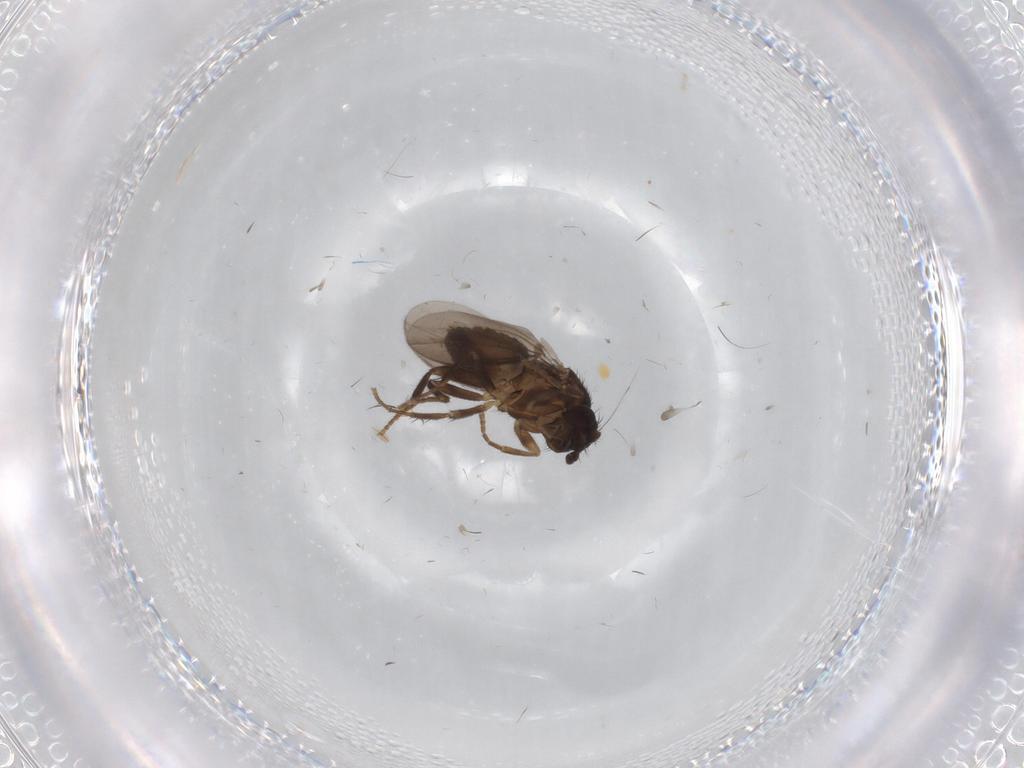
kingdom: Animalia
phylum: Arthropoda
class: Insecta
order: Diptera
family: Sphaeroceridae
